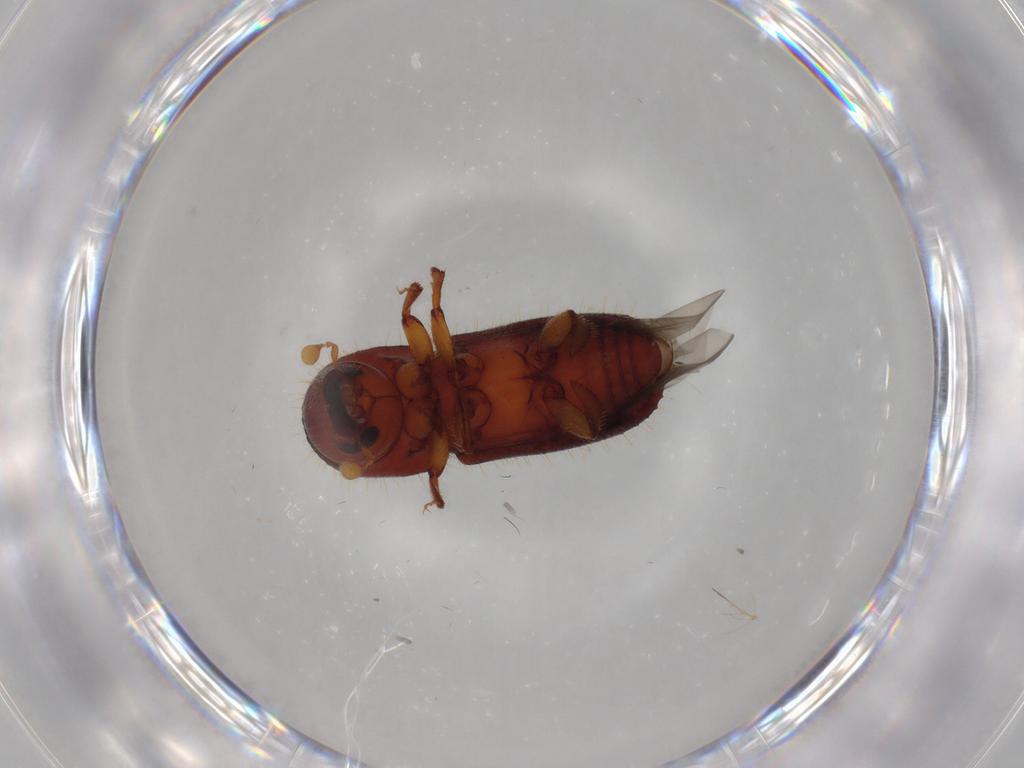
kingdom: Animalia
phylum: Arthropoda
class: Insecta
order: Coleoptera
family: Curculionidae
